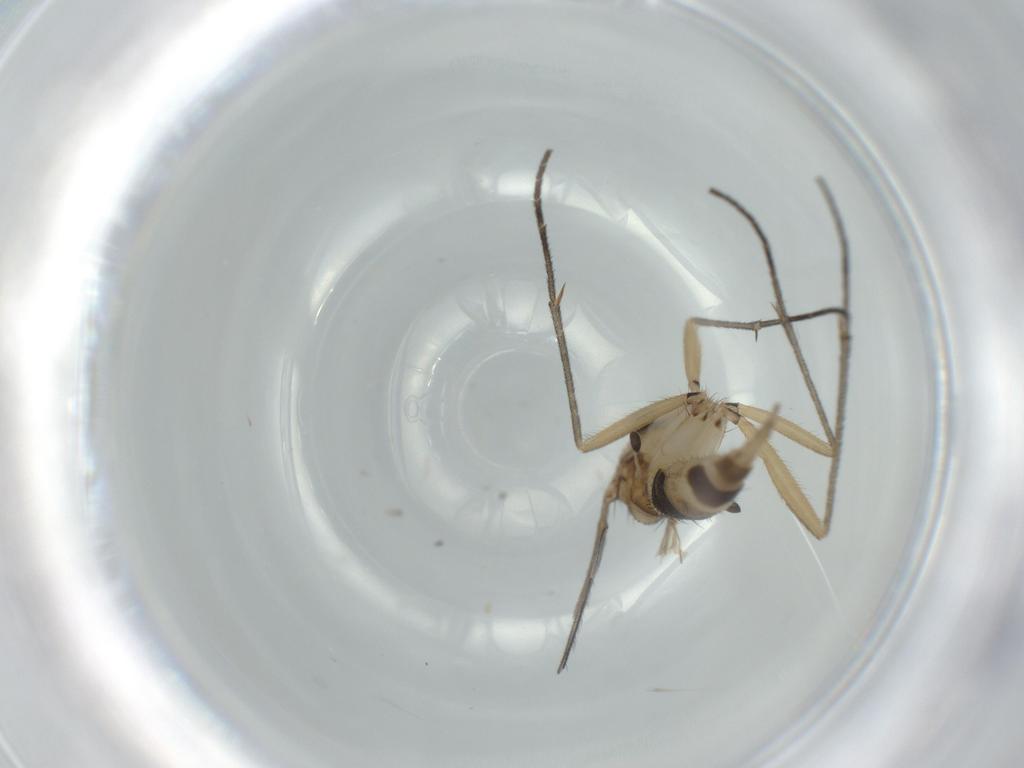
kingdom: Animalia
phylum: Arthropoda
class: Insecta
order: Diptera
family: Sciaridae
